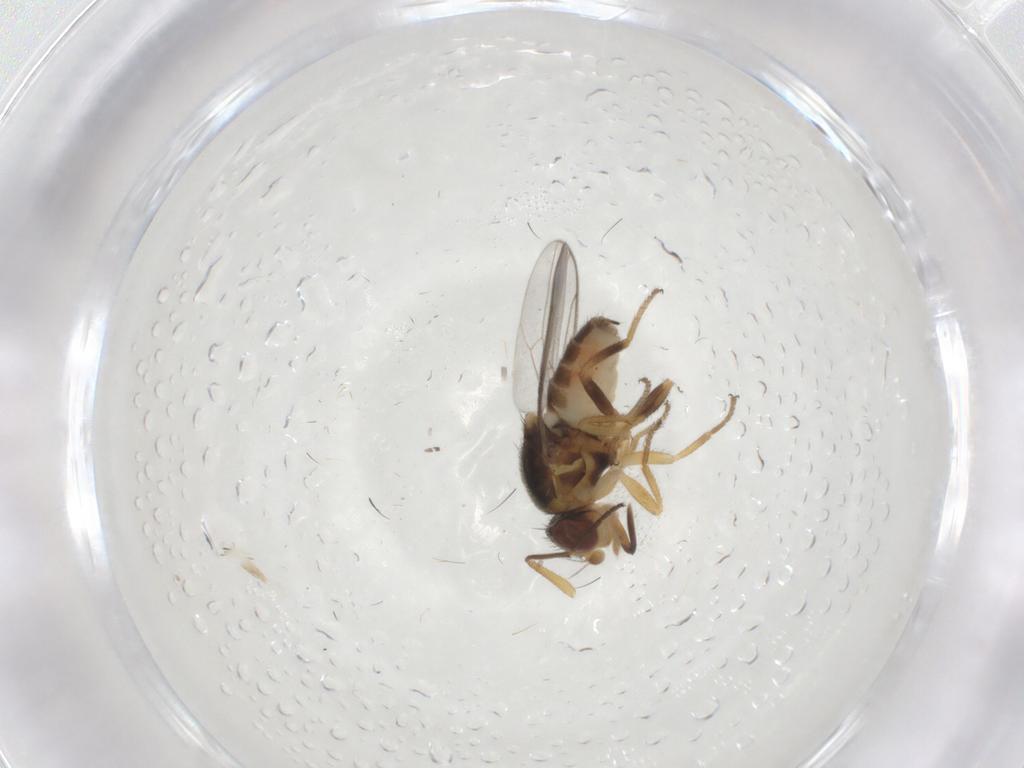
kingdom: Animalia
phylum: Arthropoda
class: Insecta
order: Diptera
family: Chloropidae
